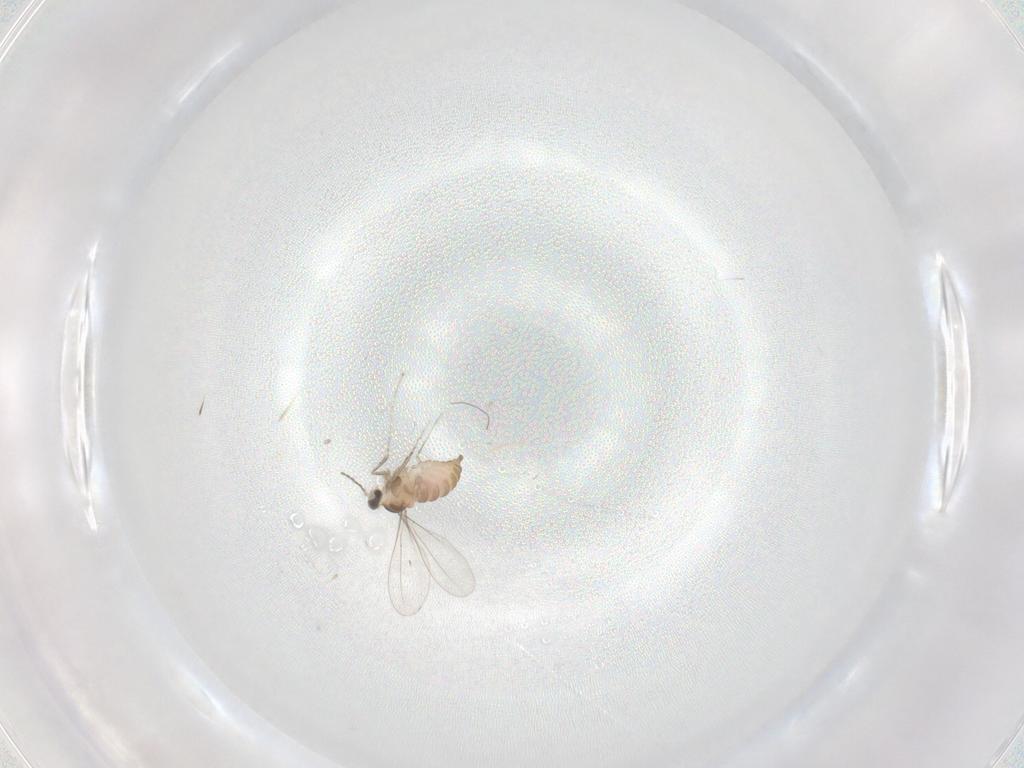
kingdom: Animalia
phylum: Arthropoda
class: Insecta
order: Diptera
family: Cecidomyiidae
